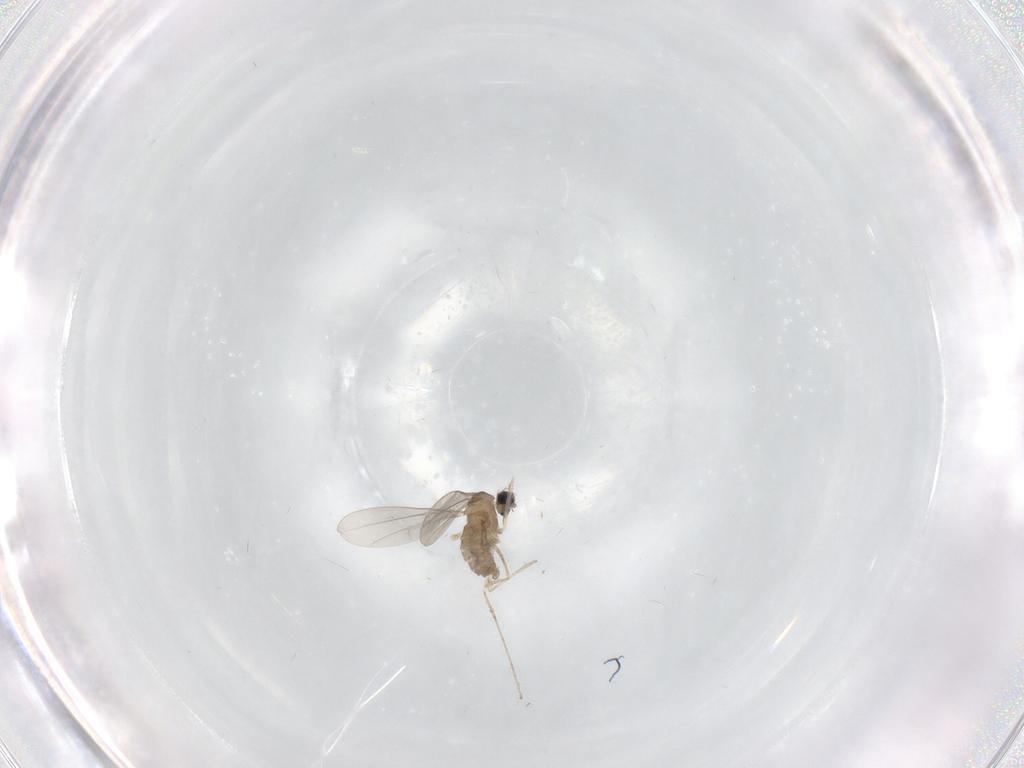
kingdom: Animalia
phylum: Arthropoda
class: Insecta
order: Diptera
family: Cecidomyiidae
